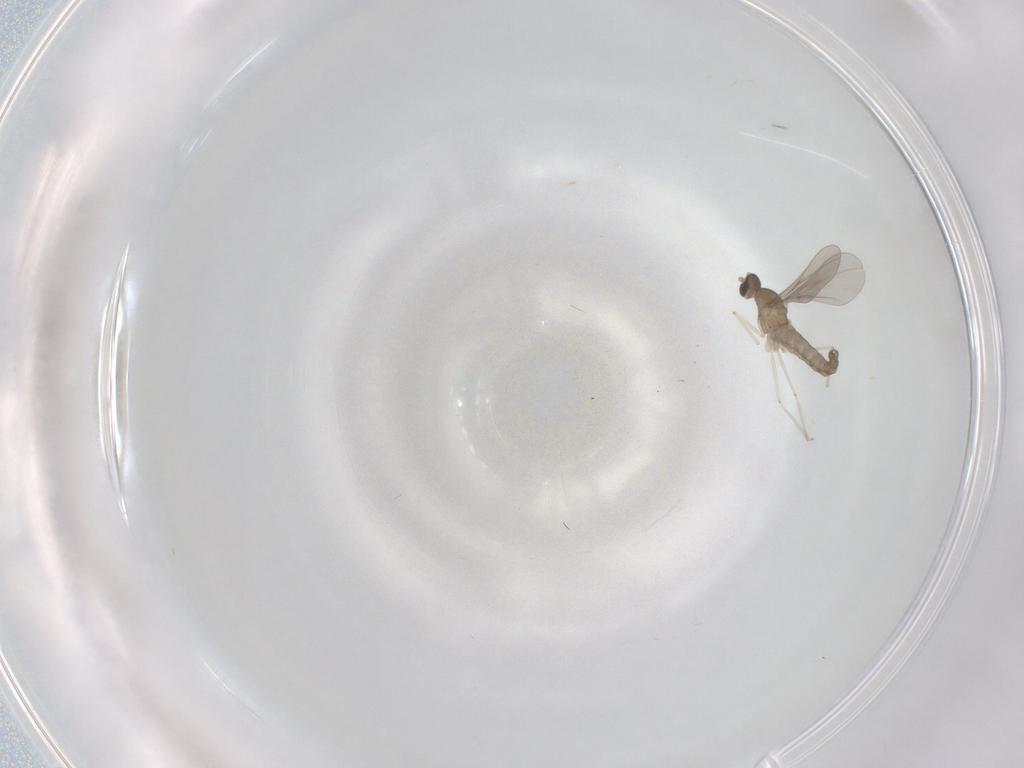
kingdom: Animalia
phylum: Arthropoda
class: Insecta
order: Diptera
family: Cecidomyiidae
